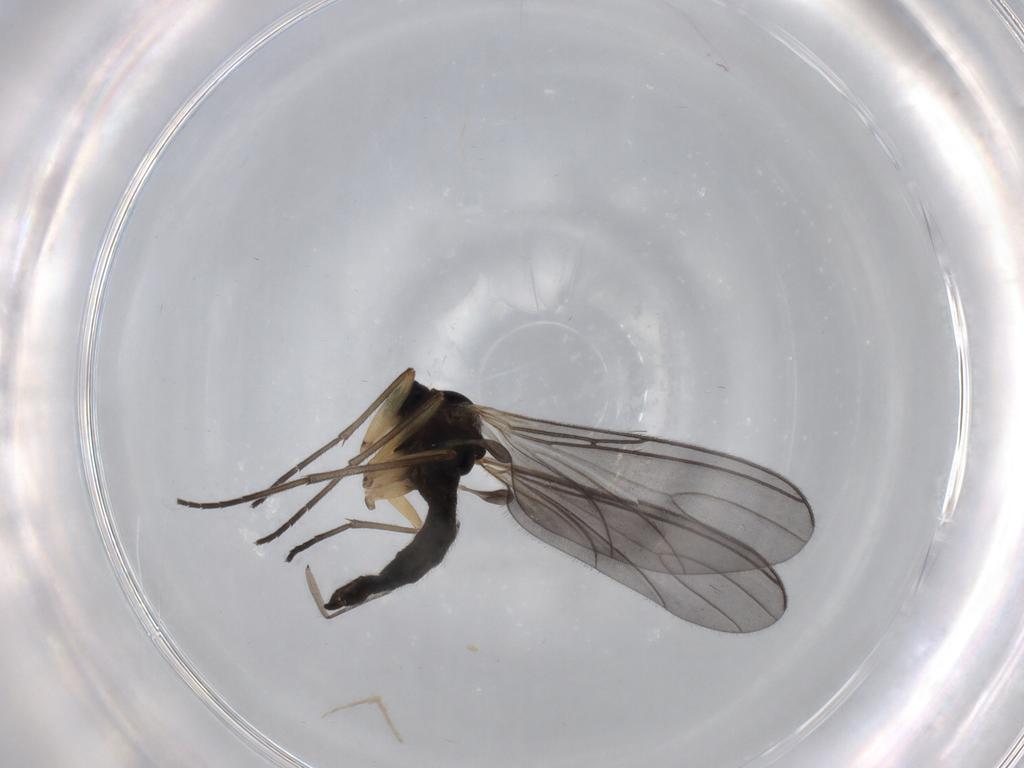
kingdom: Animalia
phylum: Arthropoda
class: Insecta
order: Diptera
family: Sciaridae
